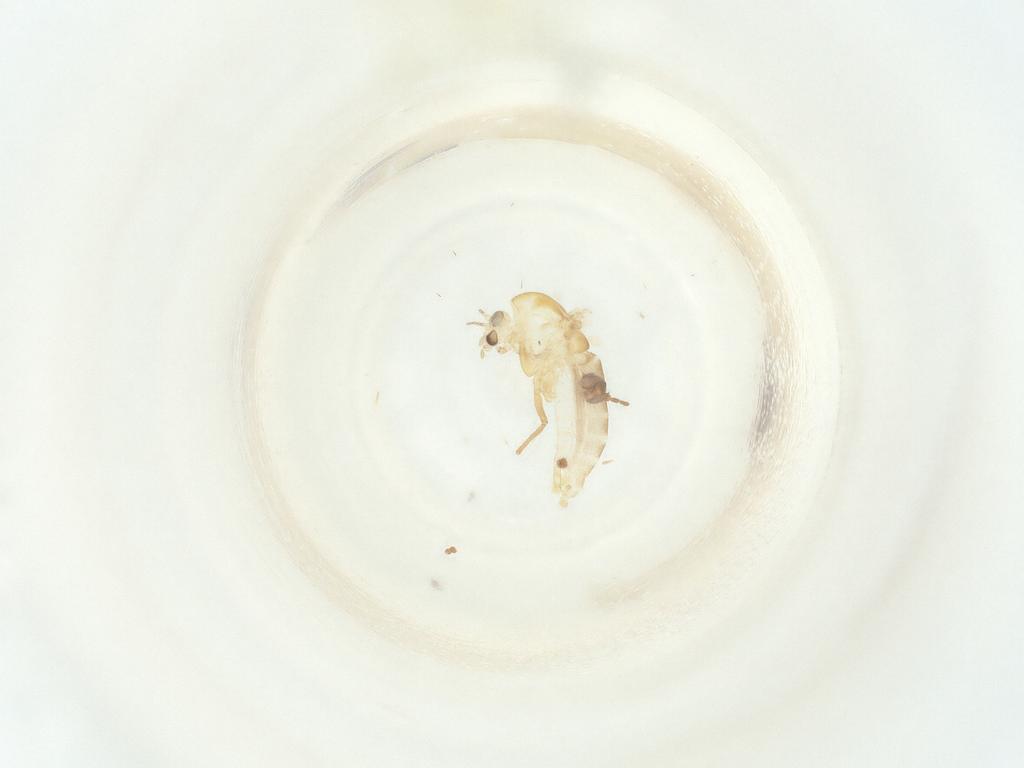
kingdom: Animalia
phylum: Arthropoda
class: Insecta
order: Diptera
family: Chironomidae
